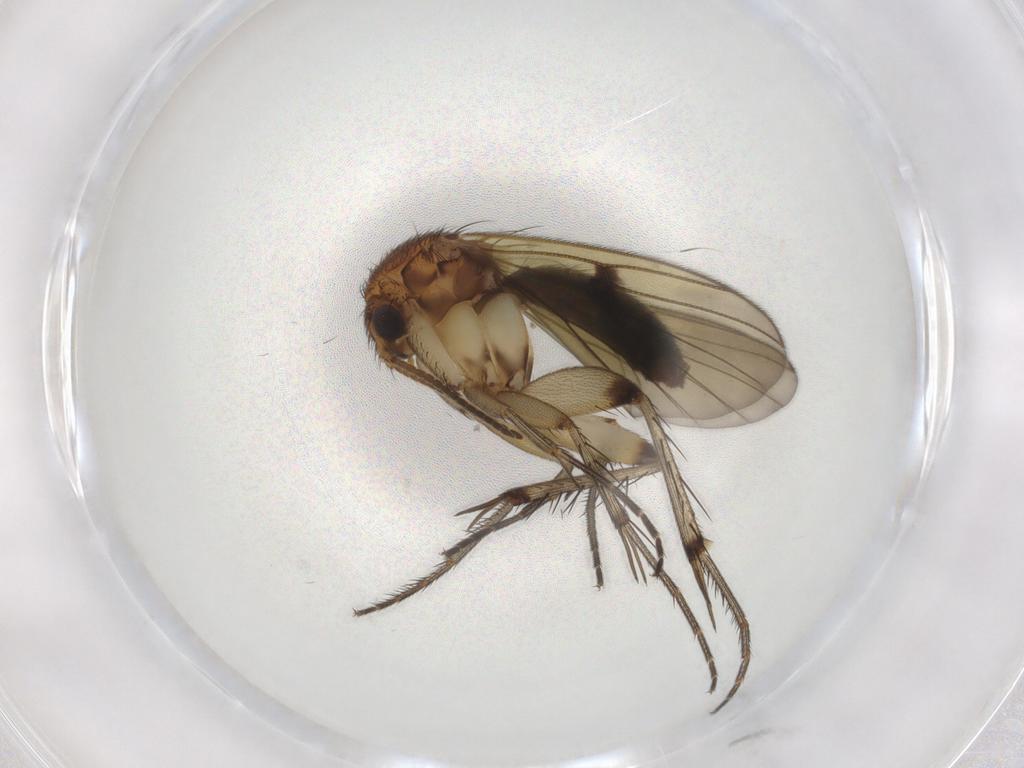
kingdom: Animalia
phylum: Arthropoda
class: Insecta
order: Diptera
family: Mycetophilidae
